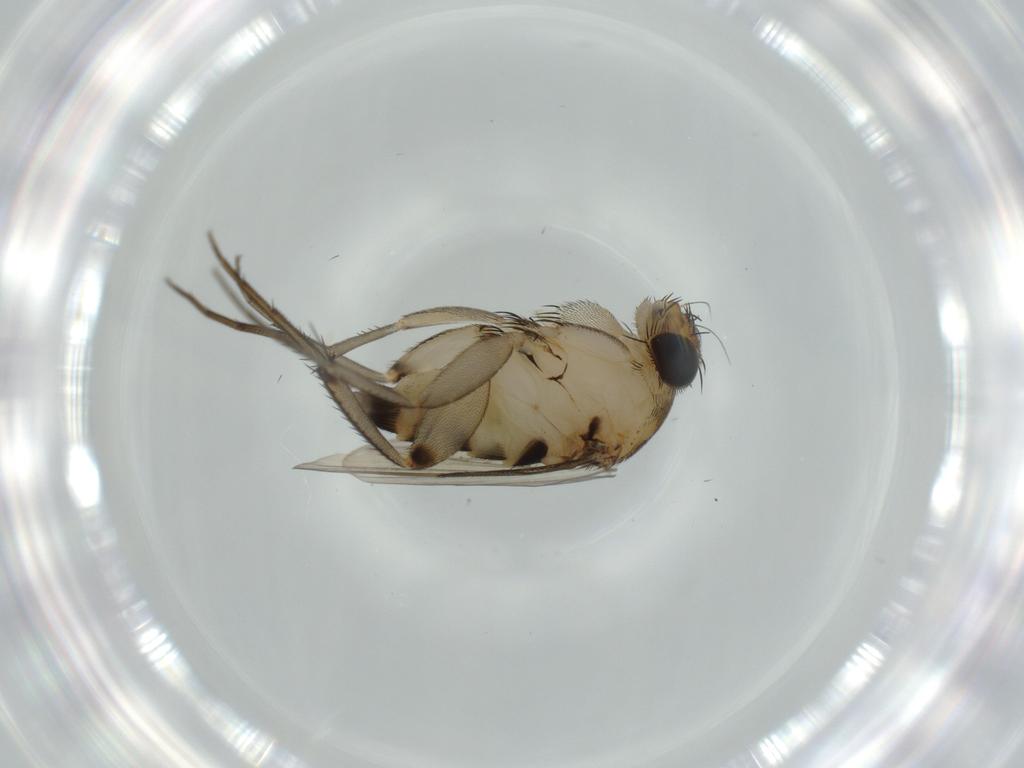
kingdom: Animalia
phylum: Arthropoda
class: Insecta
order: Diptera
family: Phoridae
